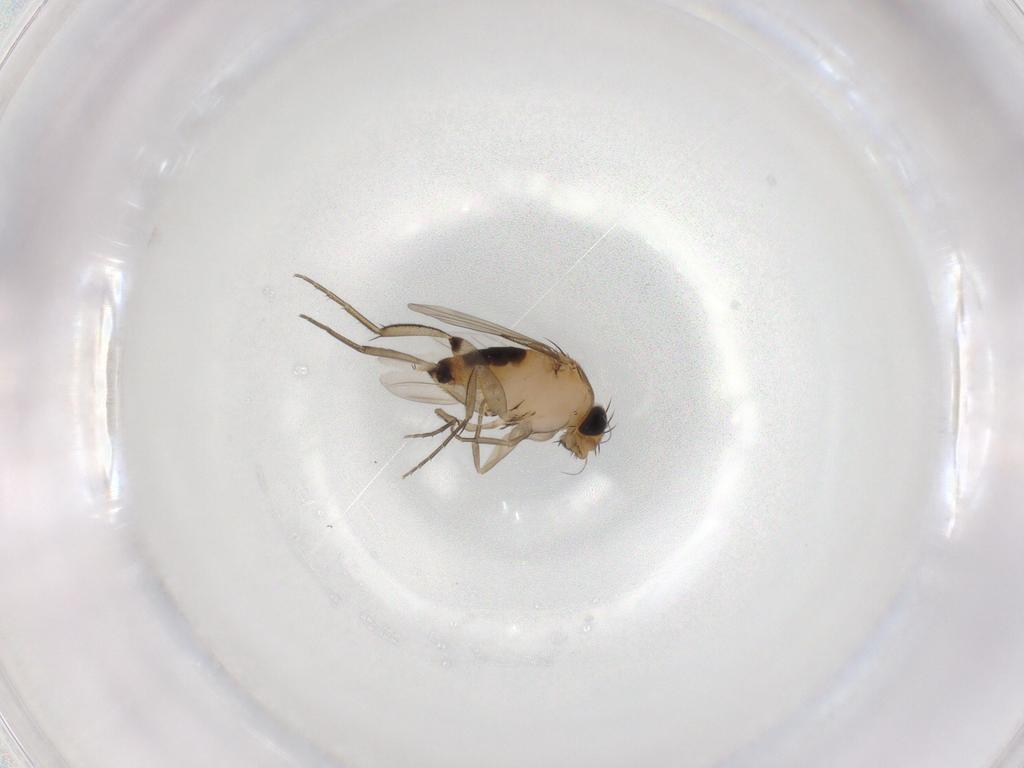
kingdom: Animalia
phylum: Arthropoda
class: Insecta
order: Diptera
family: Phoridae
